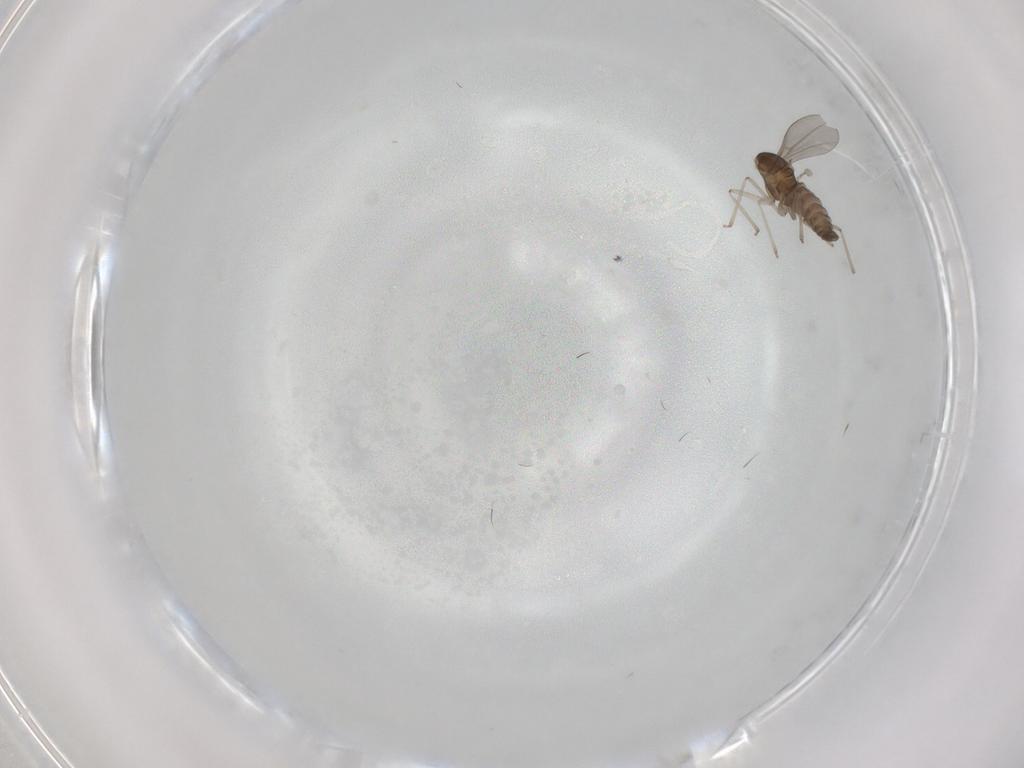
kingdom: Animalia
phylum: Arthropoda
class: Insecta
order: Diptera
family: Cecidomyiidae
